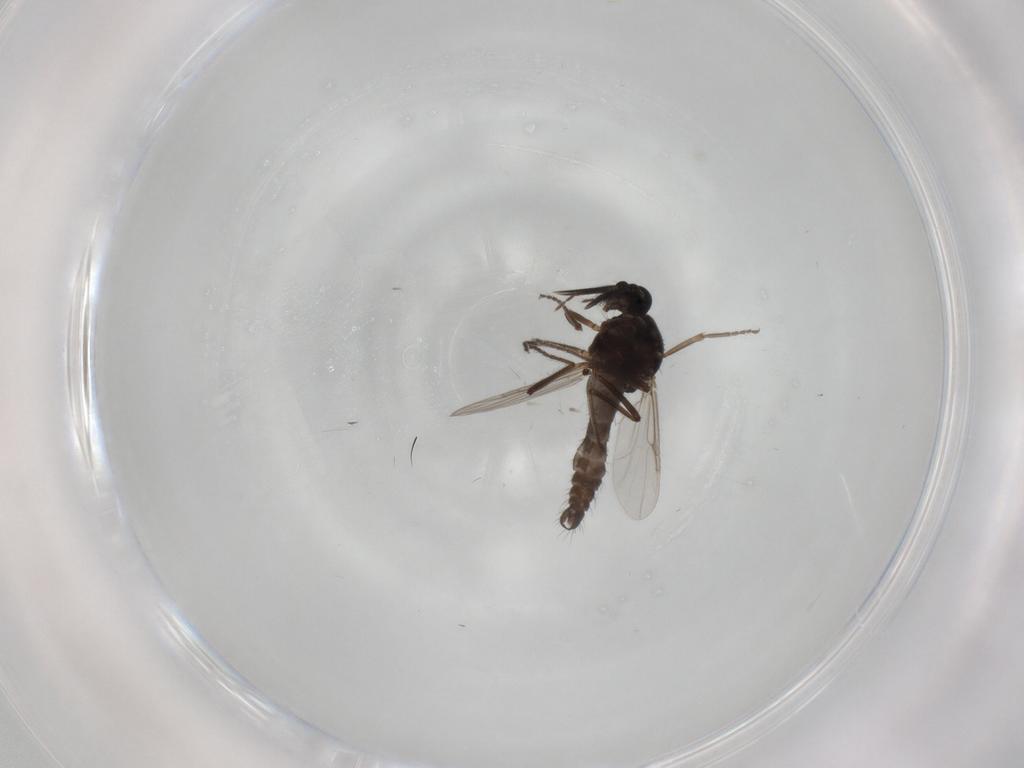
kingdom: Animalia
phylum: Arthropoda
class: Insecta
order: Diptera
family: Ceratopogonidae
